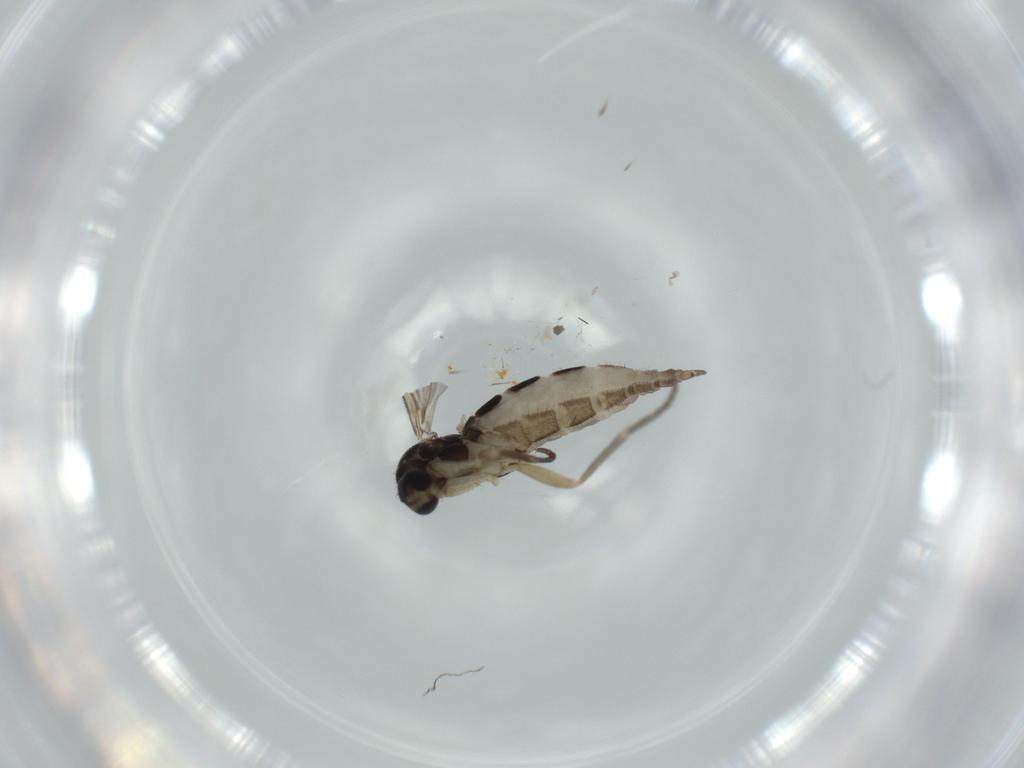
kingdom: Animalia
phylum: Arthropoda
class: Insecta
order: Diptera
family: Sciaridae
